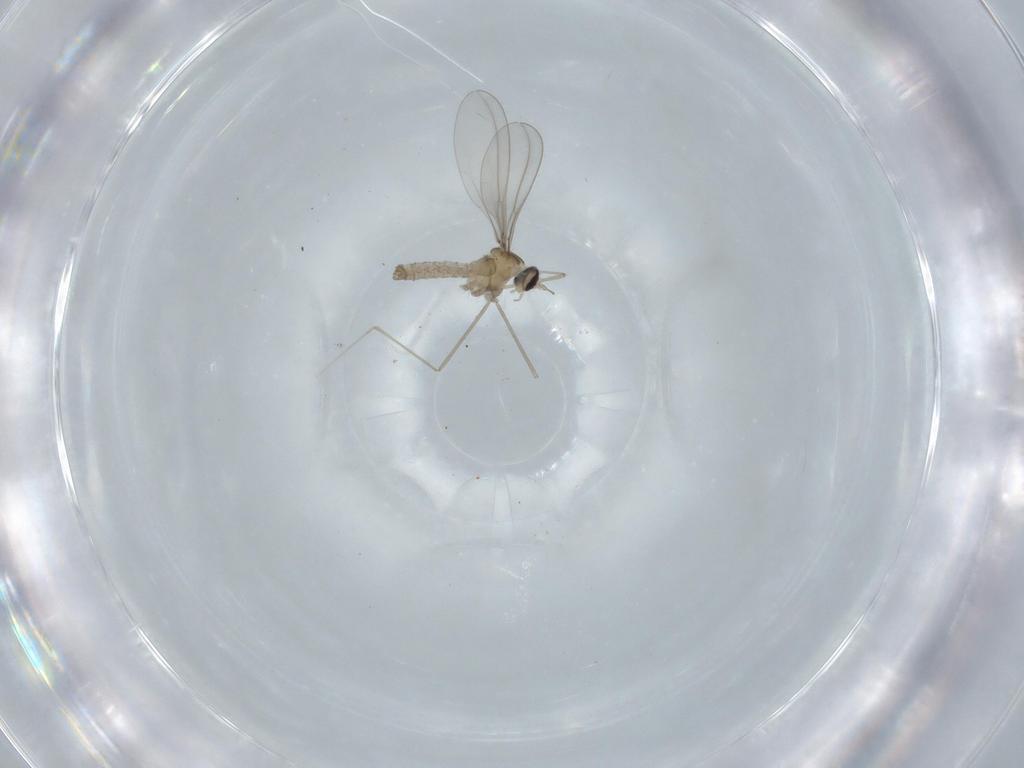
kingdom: Animalia
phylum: Arthropoda
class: Insecta
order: Diptera
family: Cecidomyiidae
